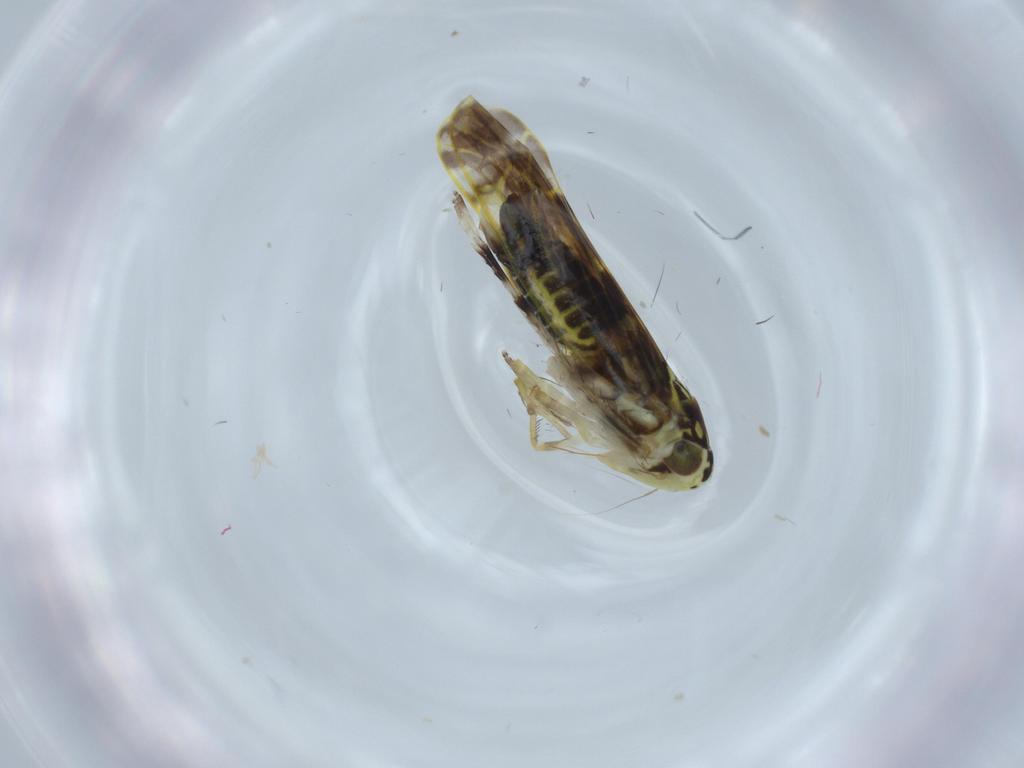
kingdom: Animalia
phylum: Arthropoda
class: Insecta
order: Hemiptera
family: Cicadellidae
